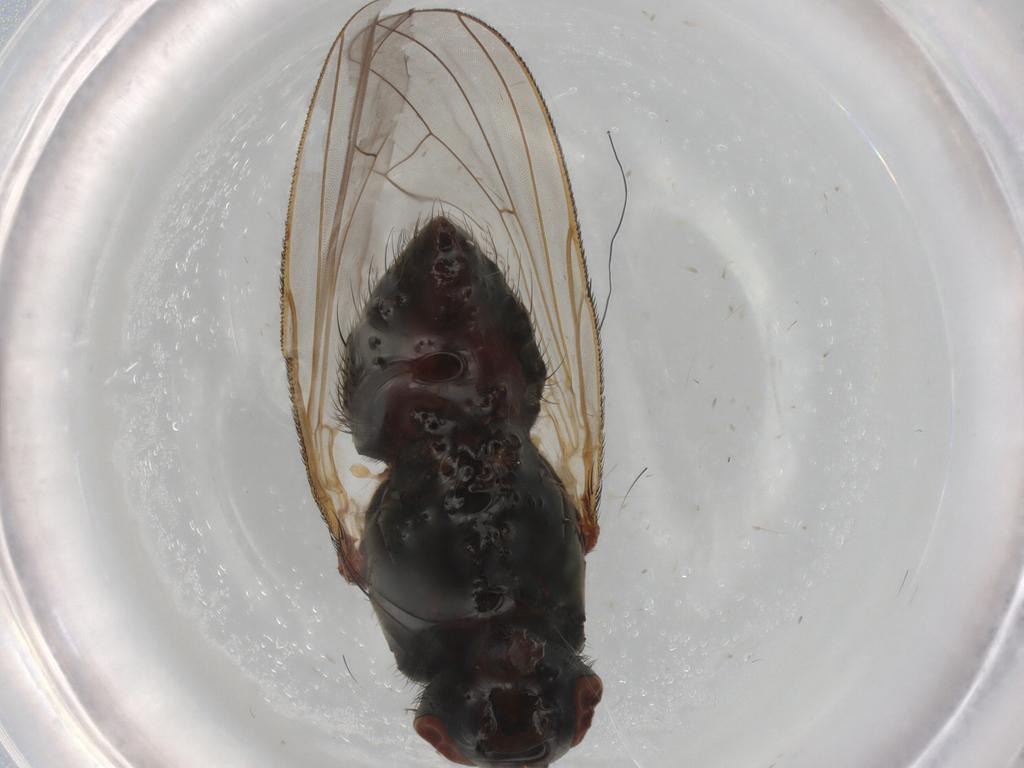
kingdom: Animalia
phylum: Arthropoda
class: Insecta
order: Diptera
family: Scatopsidae
